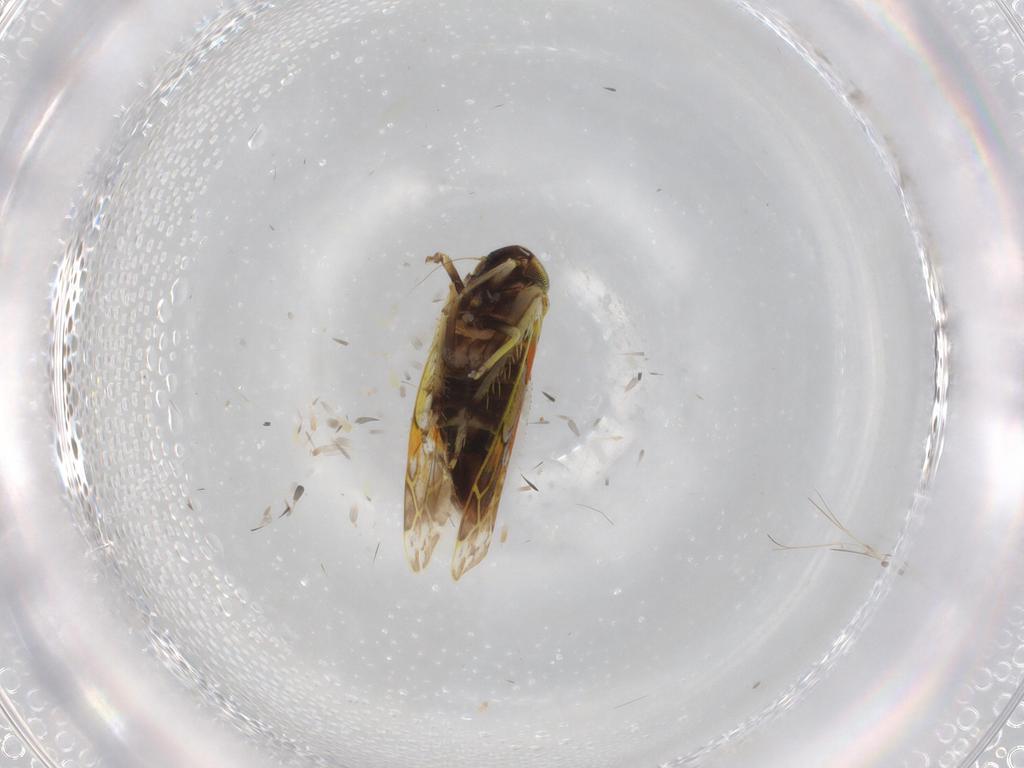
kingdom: Animalia
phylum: Arthropoda
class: Insecta
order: Hemiptera
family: Cicadellidae
